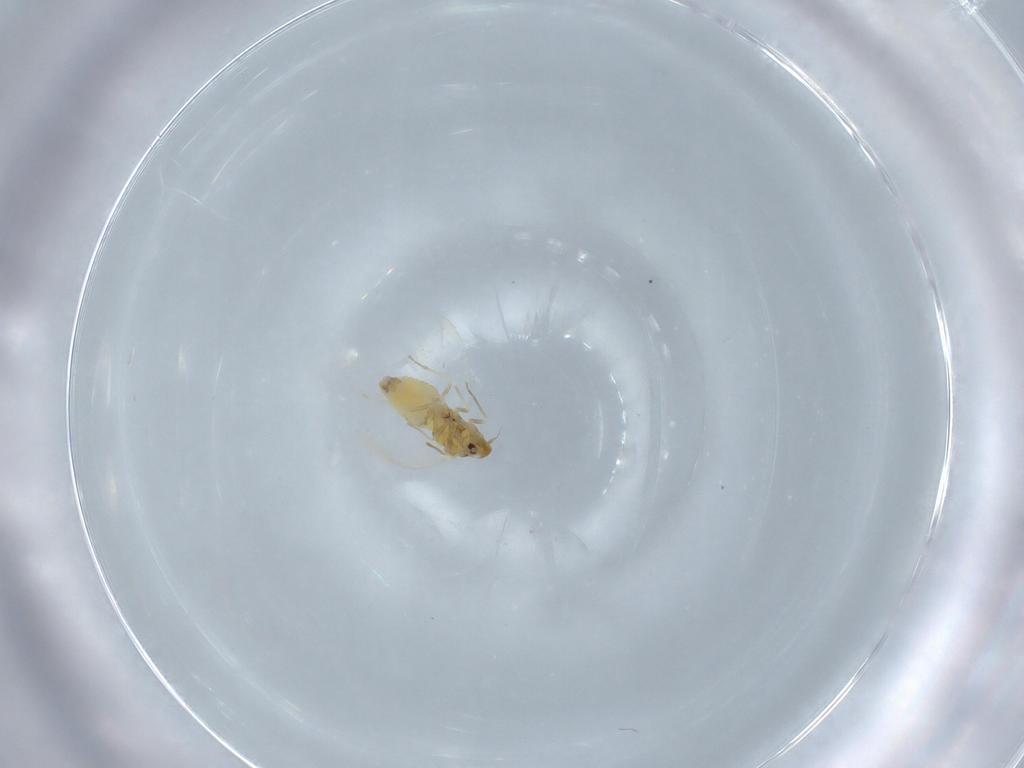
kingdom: Animalia
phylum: Arthropoda
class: Insecta
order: Hemiptera
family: Aleyrodidae
